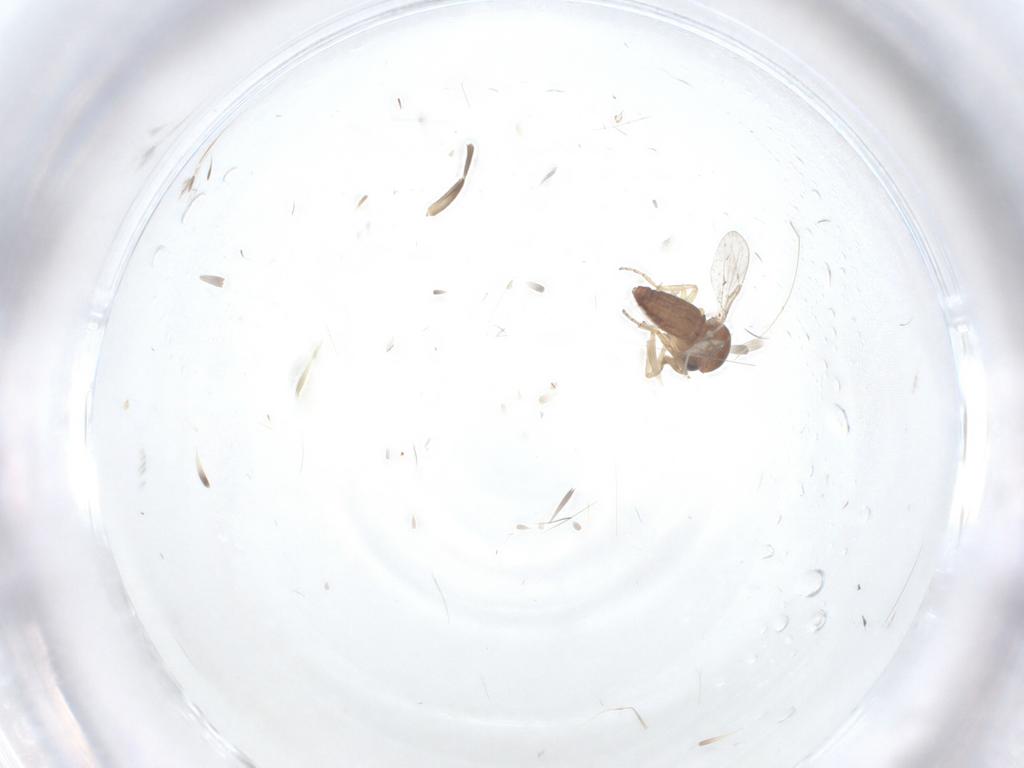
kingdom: Animalia
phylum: Arthropoda
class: Insecta
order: Diptera
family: Ceratopogonidae
